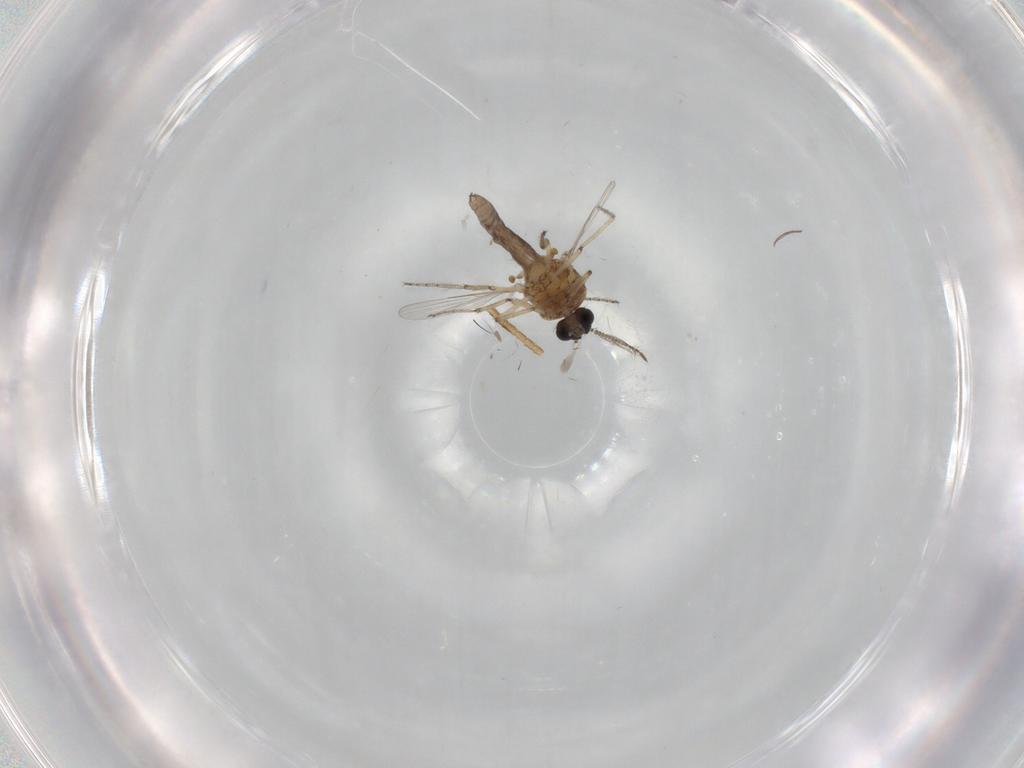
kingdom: Animalia
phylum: Arthropoda
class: Insecta
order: Diptera
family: Ceratopogonidae
